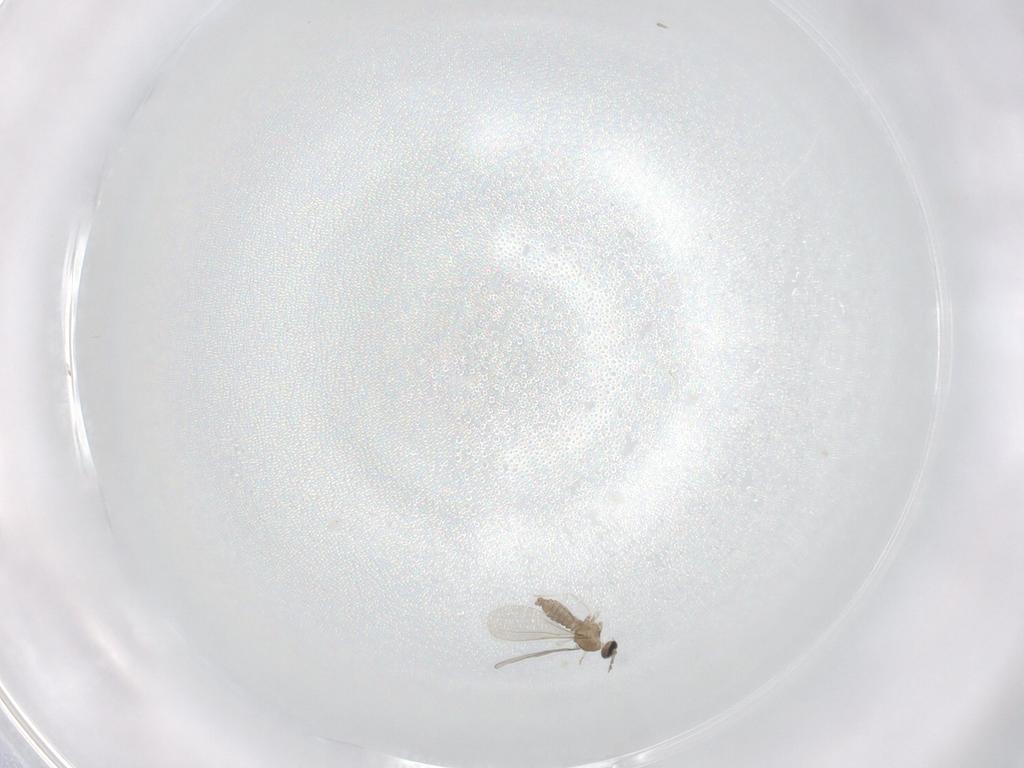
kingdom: Animalia
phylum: Arthropoda
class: Insecta
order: Diptera
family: Cecidomyiidae
